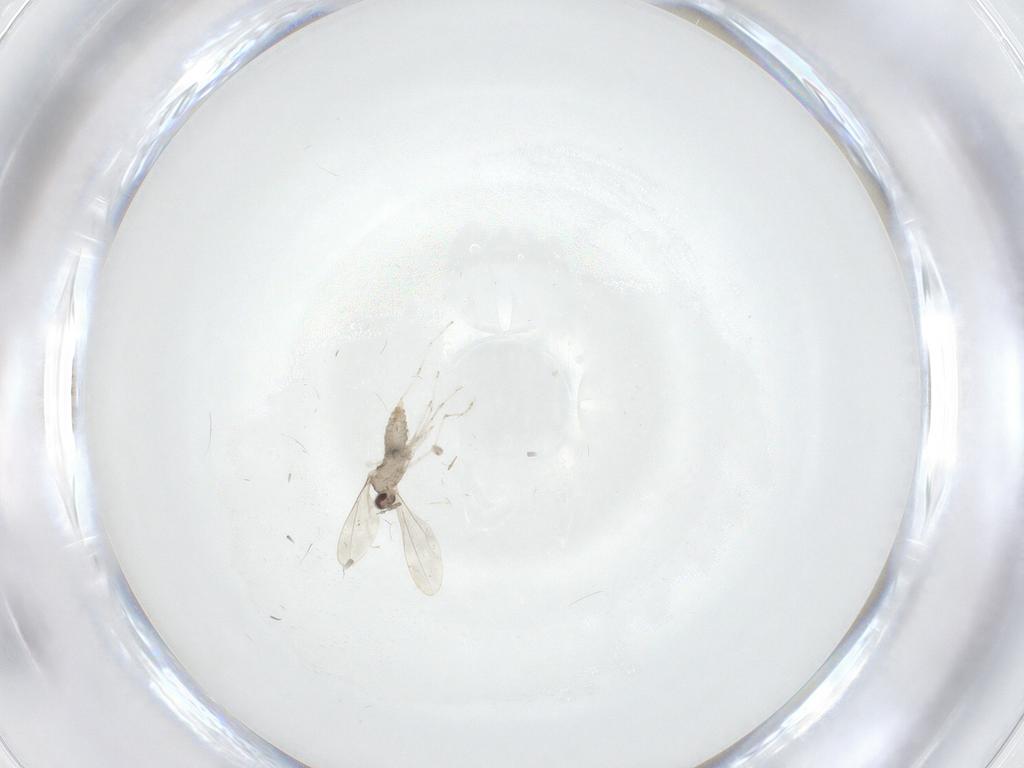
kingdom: Animalia
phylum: Arthropoda
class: Insecta
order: Diptera
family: Cecidomyiidae
